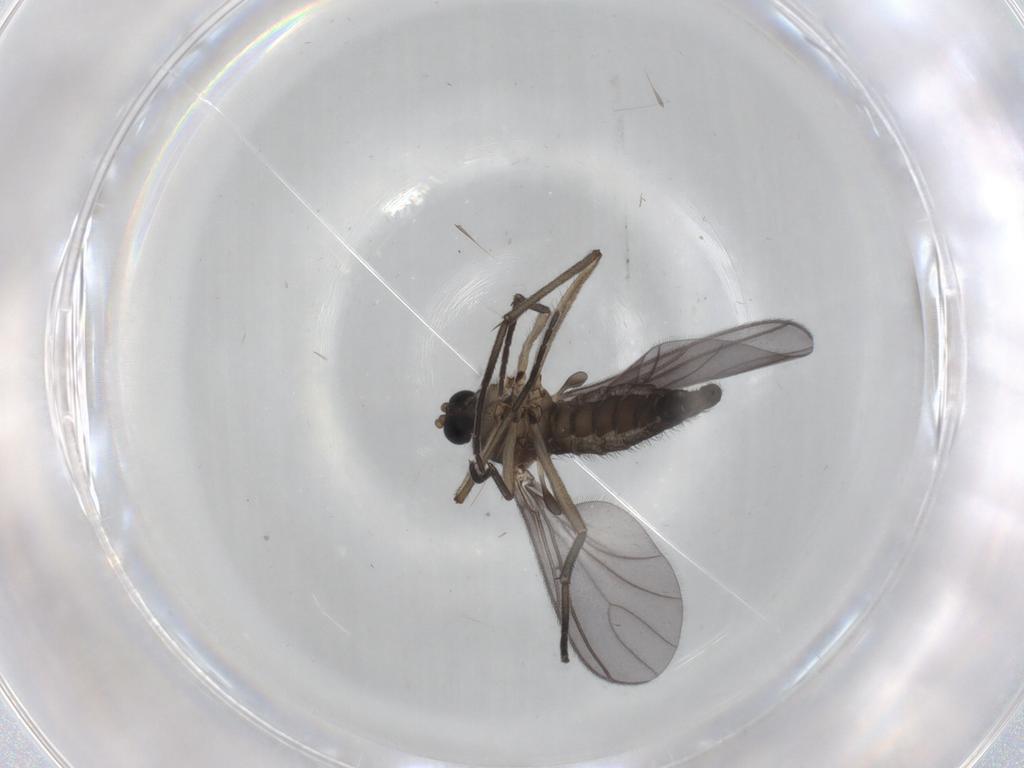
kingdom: Animalia
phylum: Arthropoda
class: Insecta
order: Diptera
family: Sciaridae
